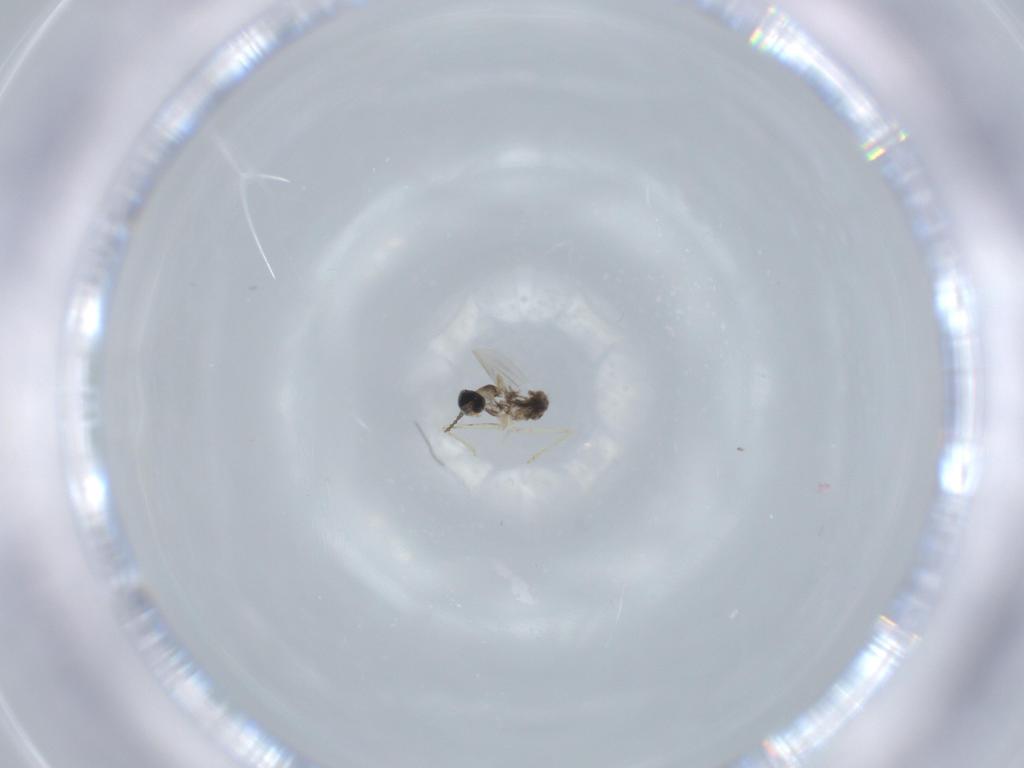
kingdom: Animalia
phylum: Arthropoda
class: Insecta
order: Diptera
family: Cecidomyiidae
